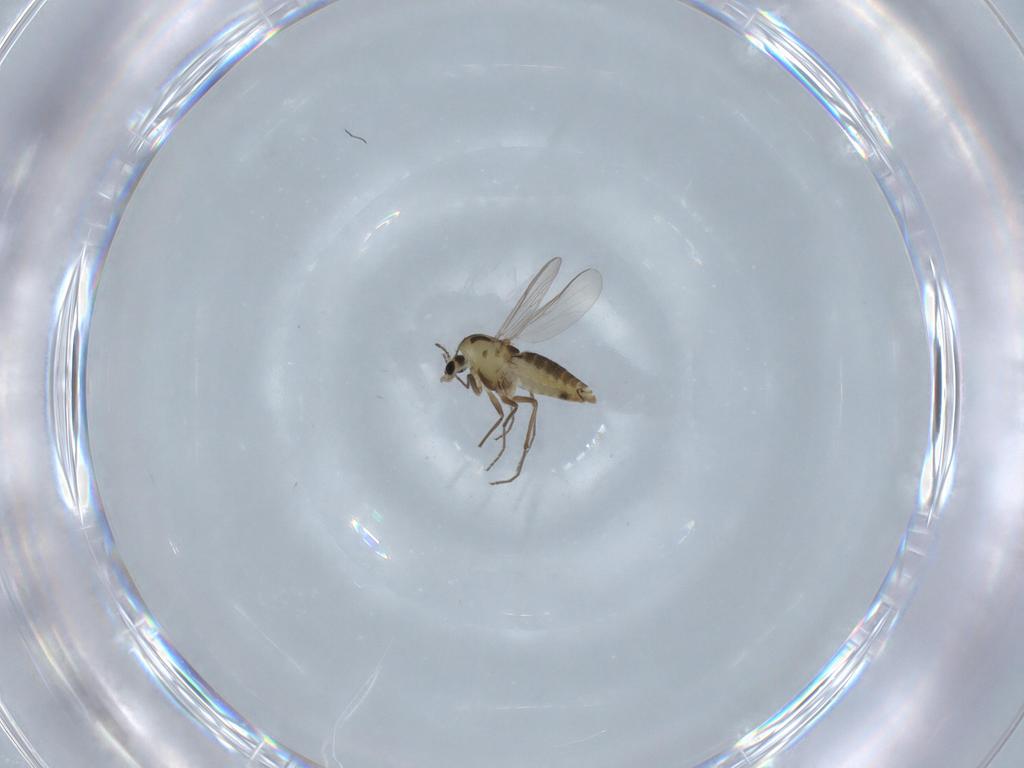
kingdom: Animalia
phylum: Arthropoda
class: Insecta
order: Diptera
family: Chironomidae
